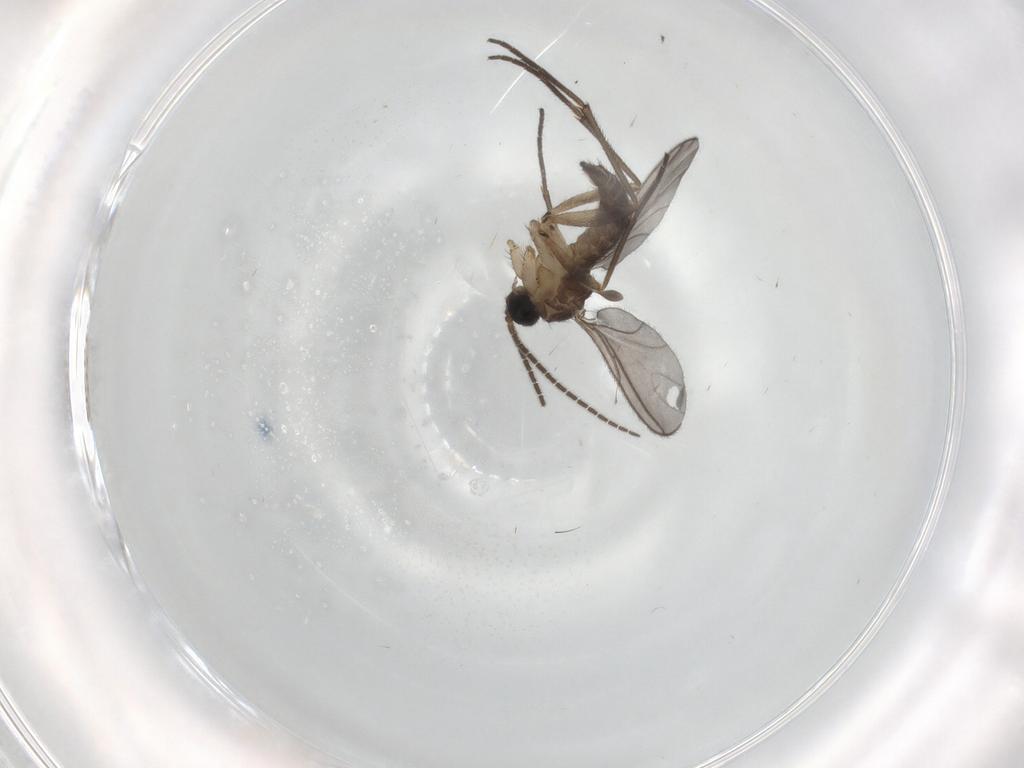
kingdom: Animalia
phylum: Arthropoda
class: Insecta
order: Diptera
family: Sciaridae
